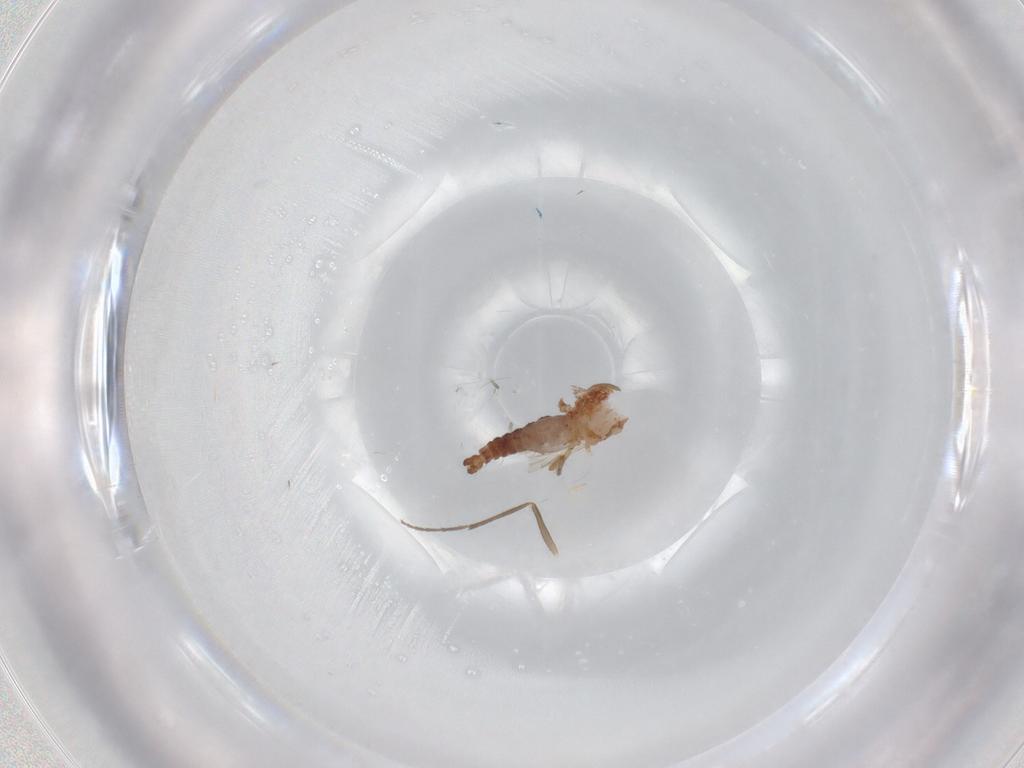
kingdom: Animalia
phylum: Arthropoda
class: Insecta
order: Diptera
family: Ceratopogonidae
